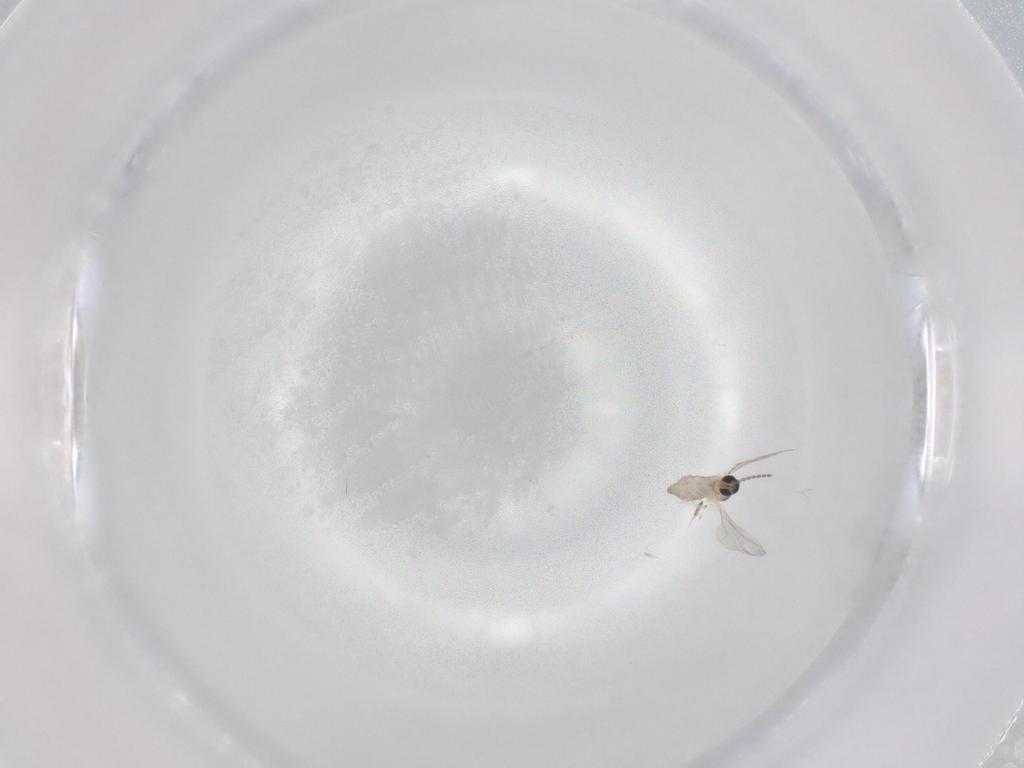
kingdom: Animalia
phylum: Arthropoda
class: Insecta
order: Diptera
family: Cecidomyiidae
